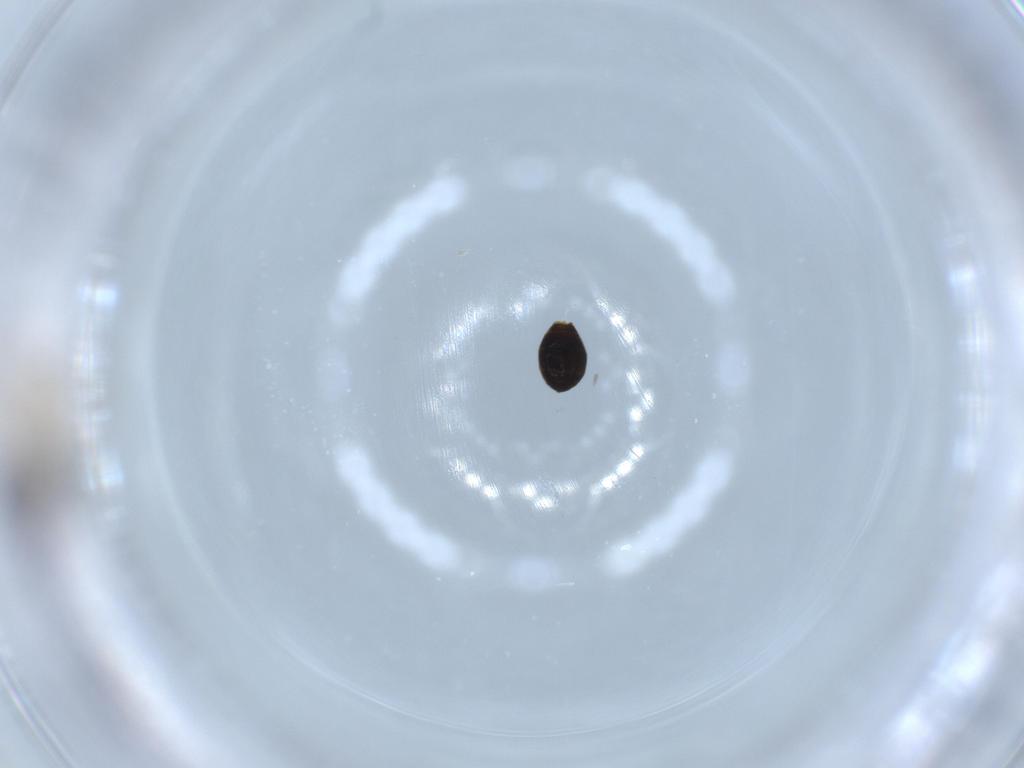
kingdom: Animalia
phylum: Arthropoda
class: Insecta
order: Hymenoptera
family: Scelionidae
